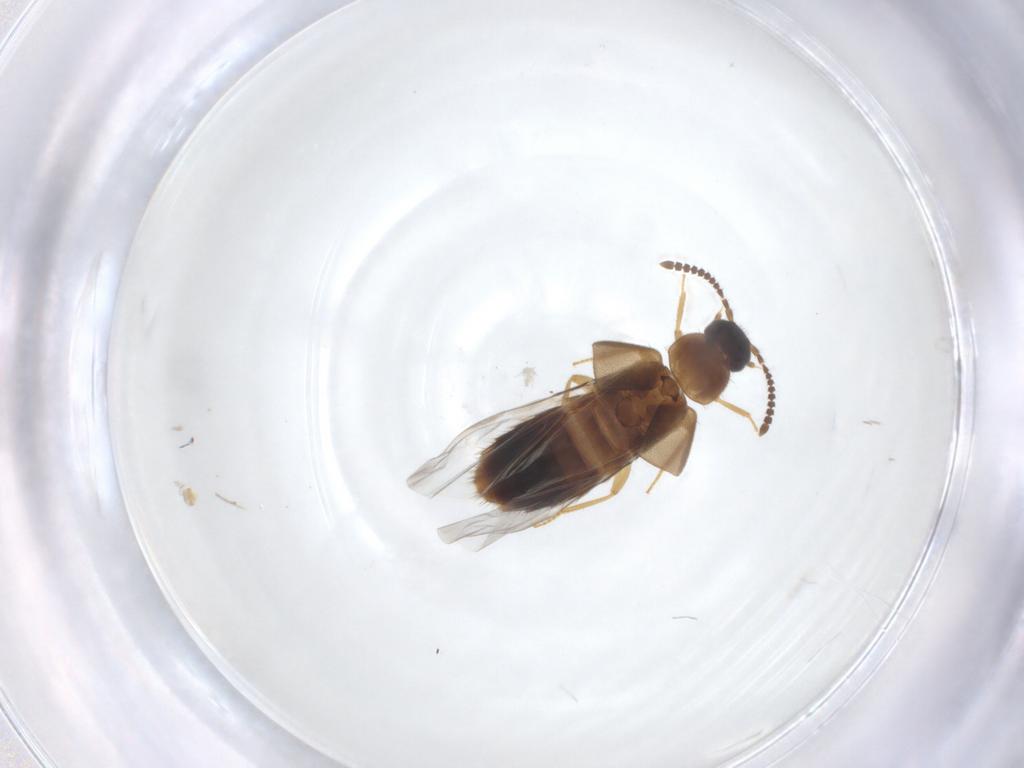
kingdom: Animalia
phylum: Arthropoda
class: Insecta
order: Coleoptera
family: Staphylinidae
